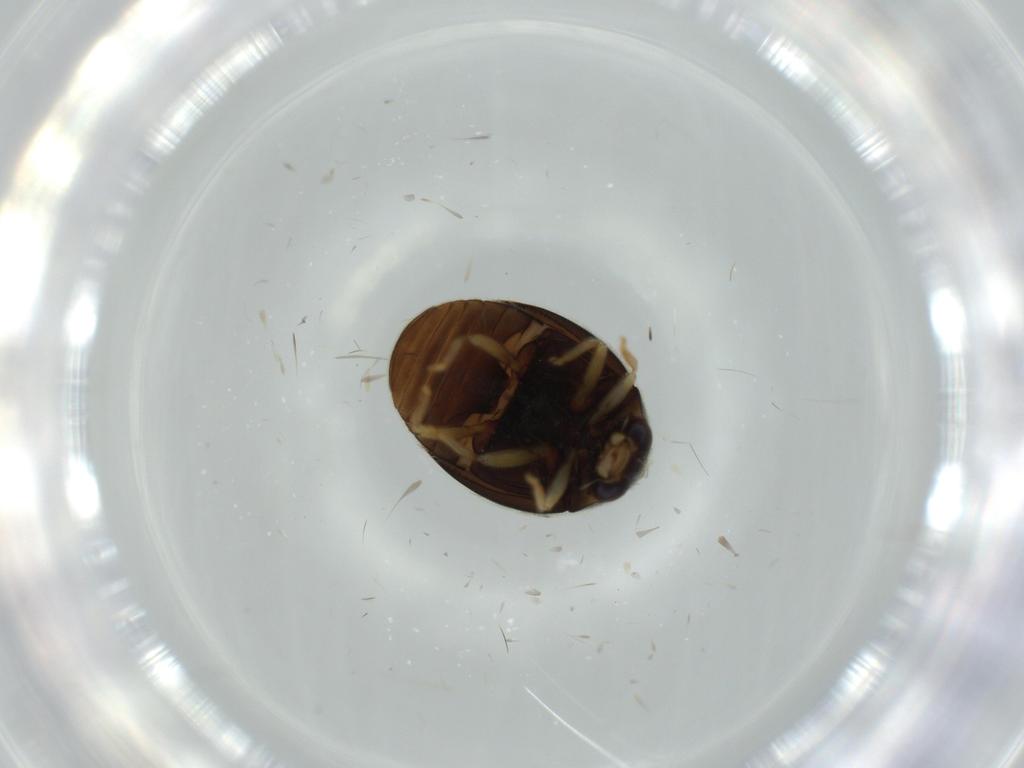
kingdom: Animalia
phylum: Arthropoda
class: Insecta
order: Coleoptera
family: Coccinellidae
